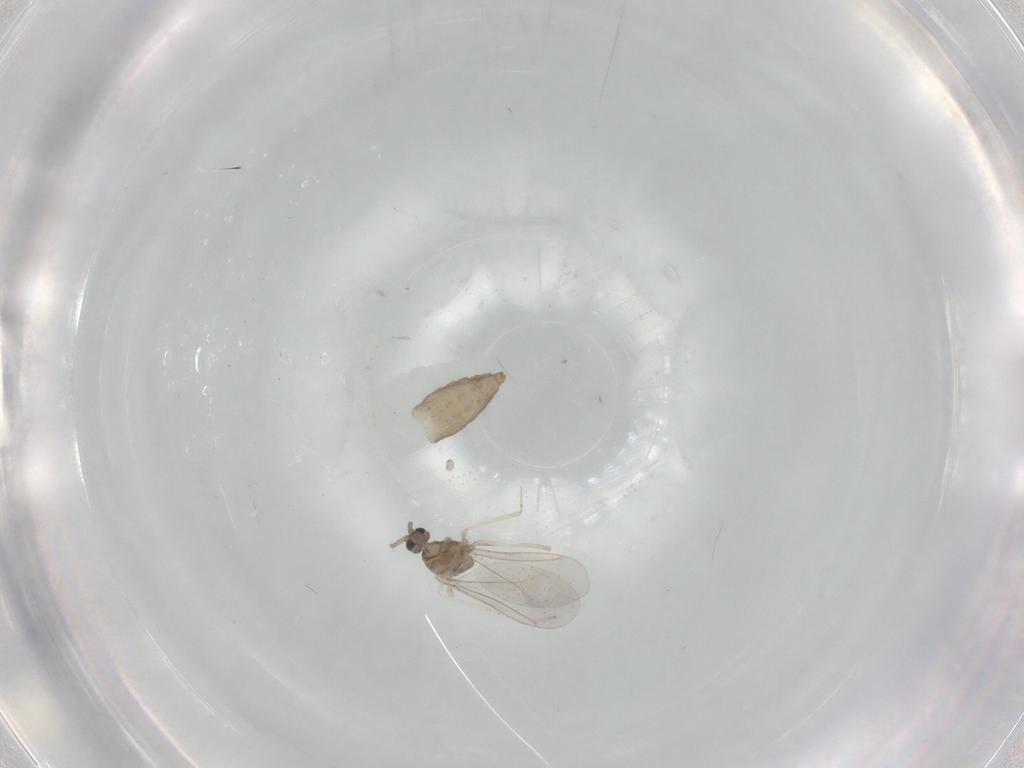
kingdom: Animalia
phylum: Arthropoda
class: Insecta
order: Diptera
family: Cecidomyiidae
